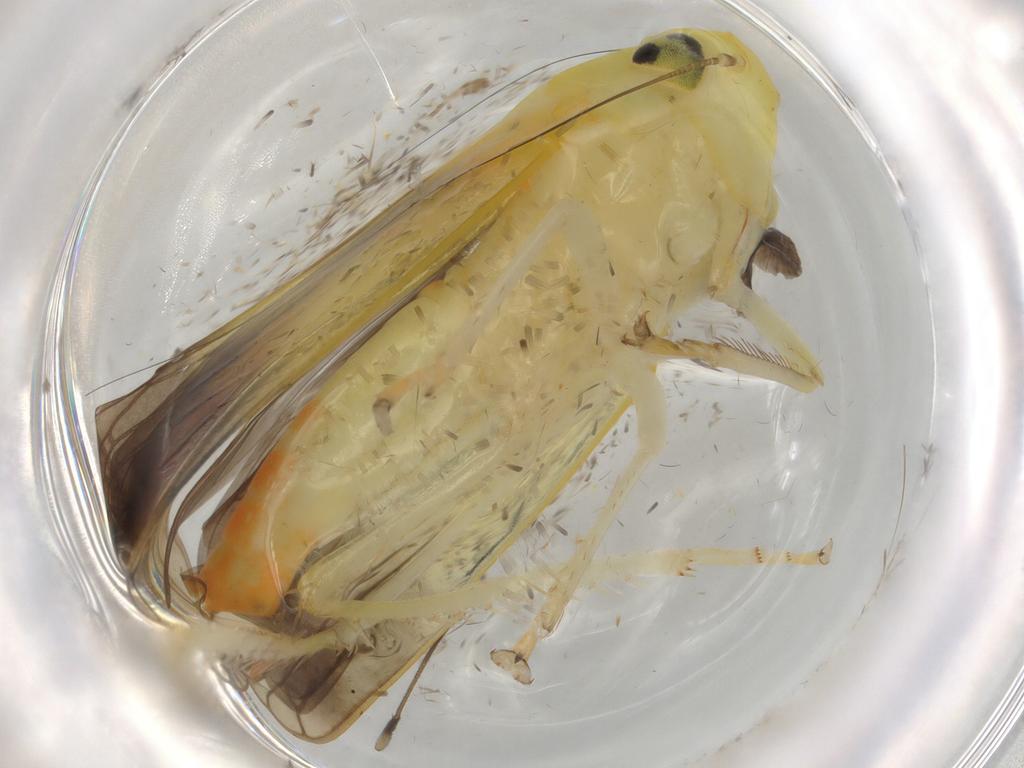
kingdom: Animalia
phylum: Arthropoda
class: Insecta
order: Hemiptera
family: Cicadellidae
